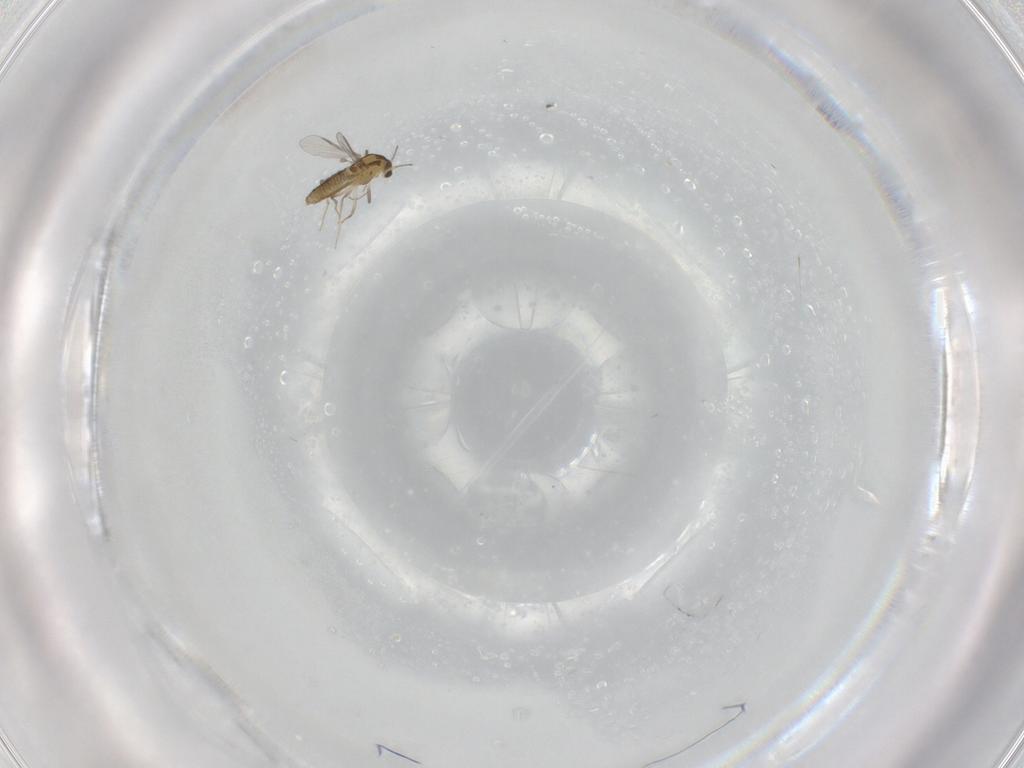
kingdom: Animalia
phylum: Arthropoda
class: Insecta
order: Diptera
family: Chironomidae
